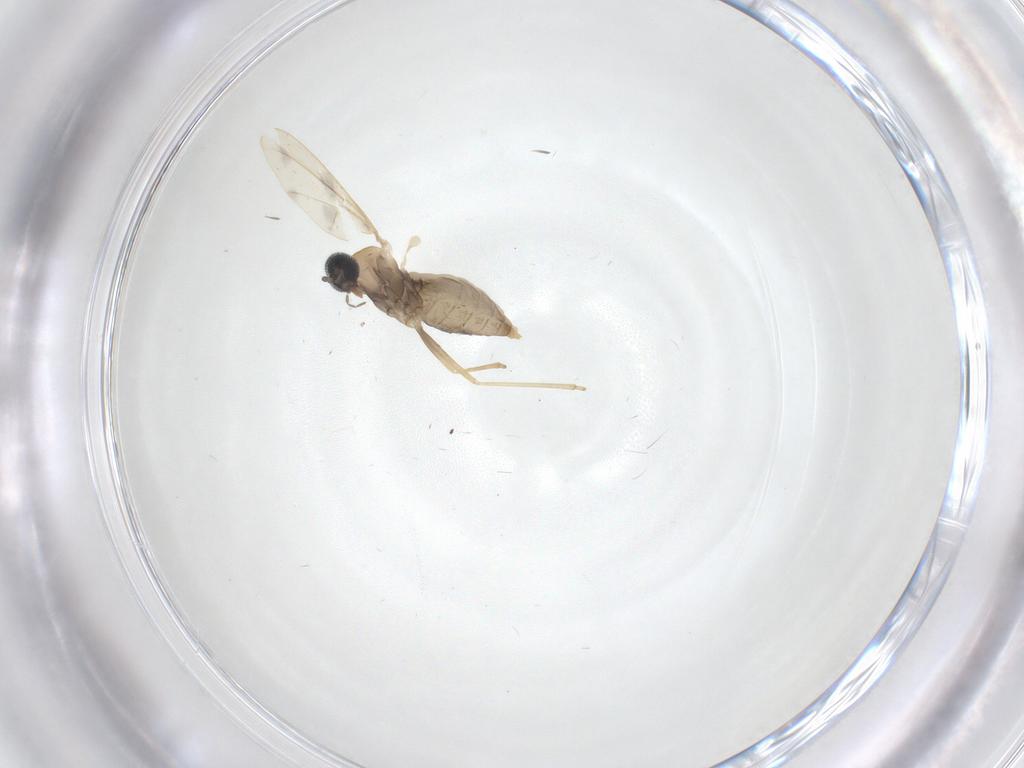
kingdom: Animalia
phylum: Arthropoda
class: Insecta
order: Diptera
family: Cecidomyiidae
